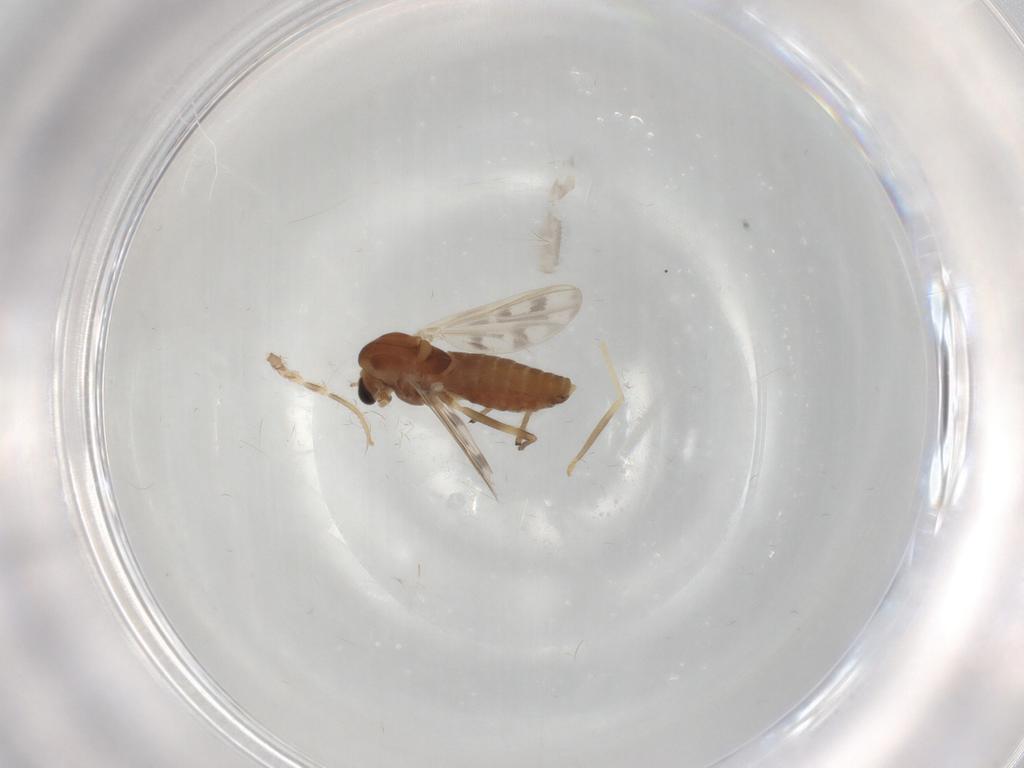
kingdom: Animalia
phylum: Arthropoda
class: Insecta
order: Diptera
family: Chironomidae
